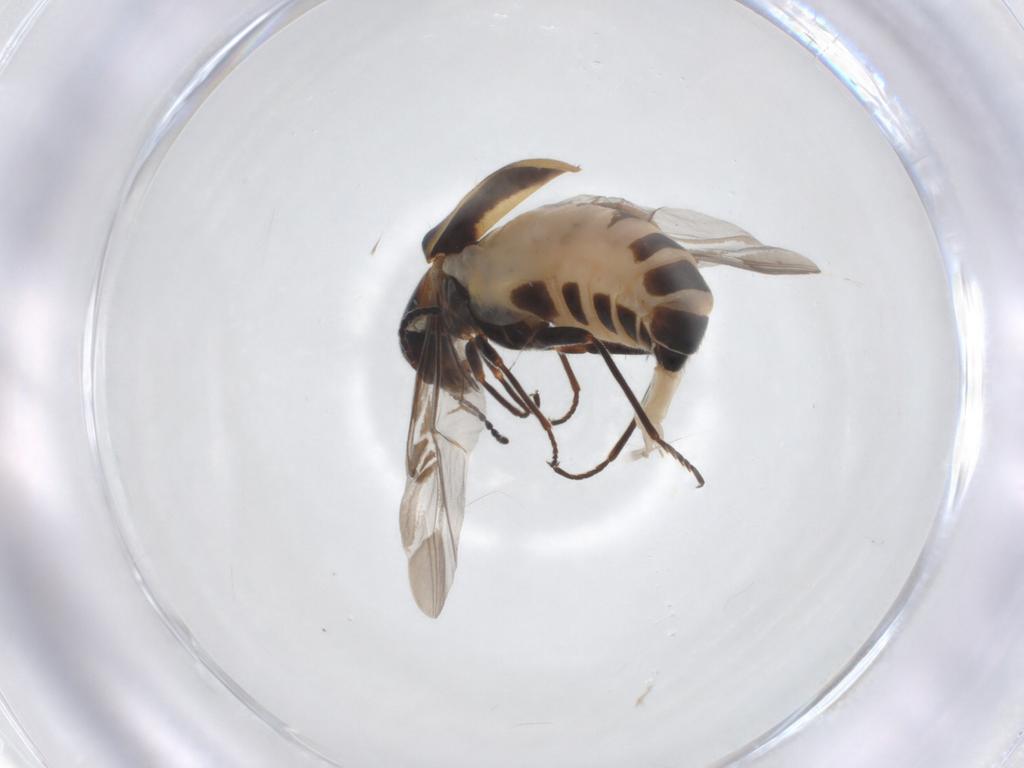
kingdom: Animalia
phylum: Arthropoda
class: Insecta
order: Coleoptera
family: Melyridae
